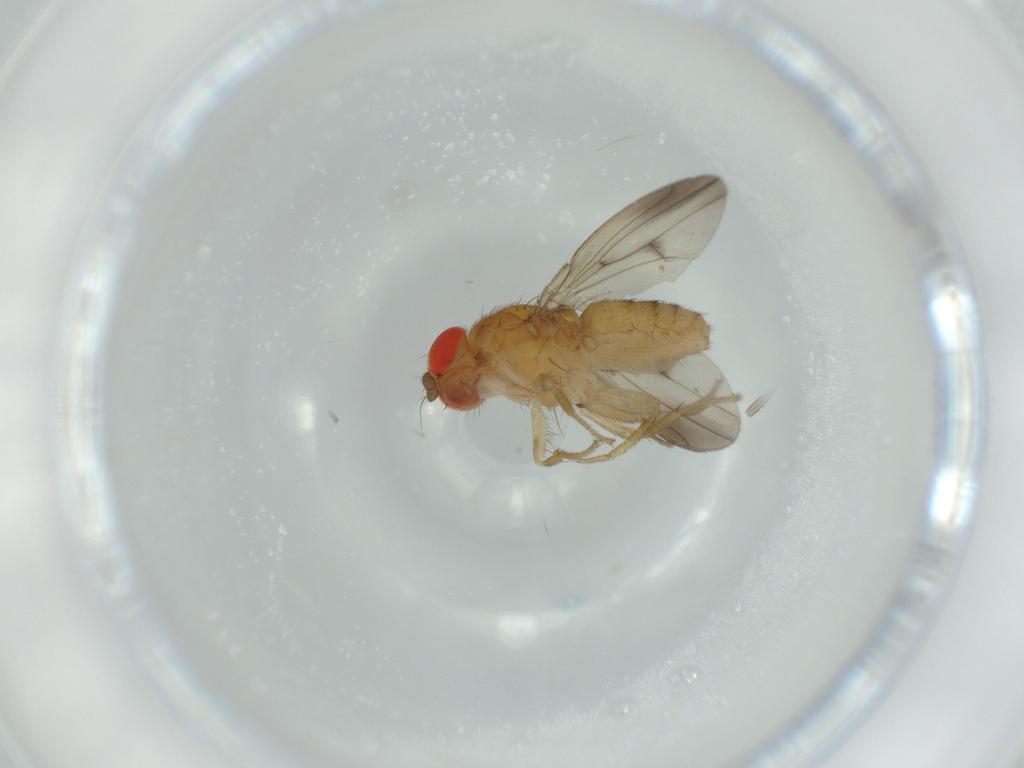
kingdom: Animalia
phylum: Arthropoda
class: Insecta
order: Diptera
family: Drosophilidae
